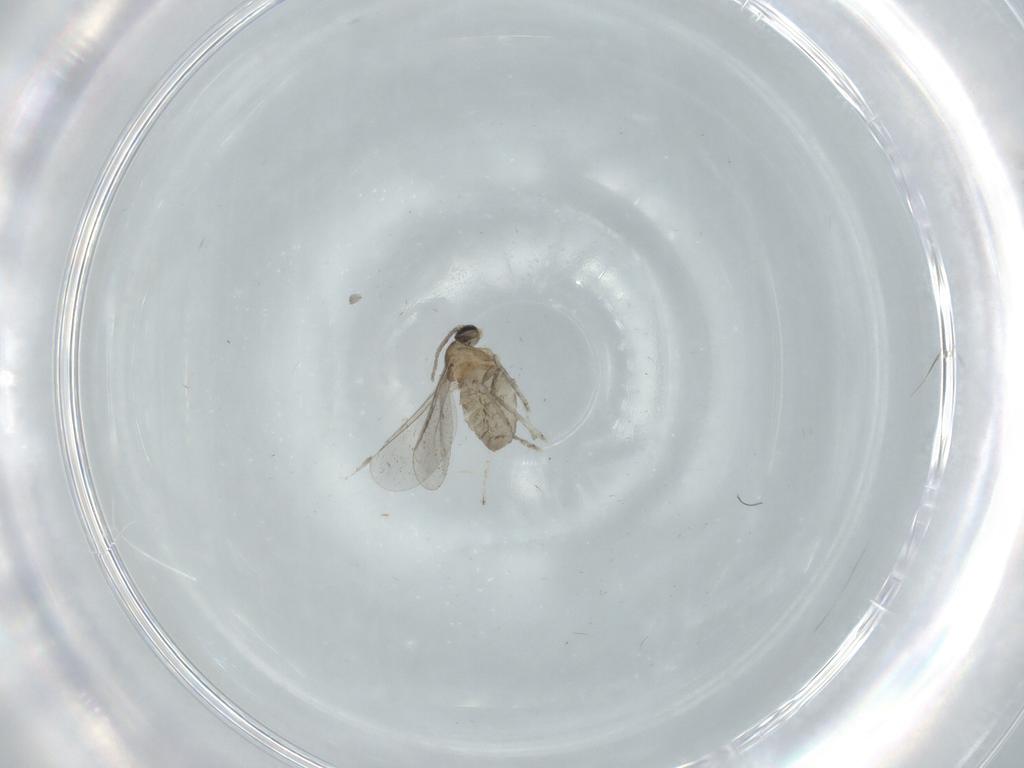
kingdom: Animalia
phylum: Arthropoda
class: Insecta
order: Diptera
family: Cecidomyiidae
